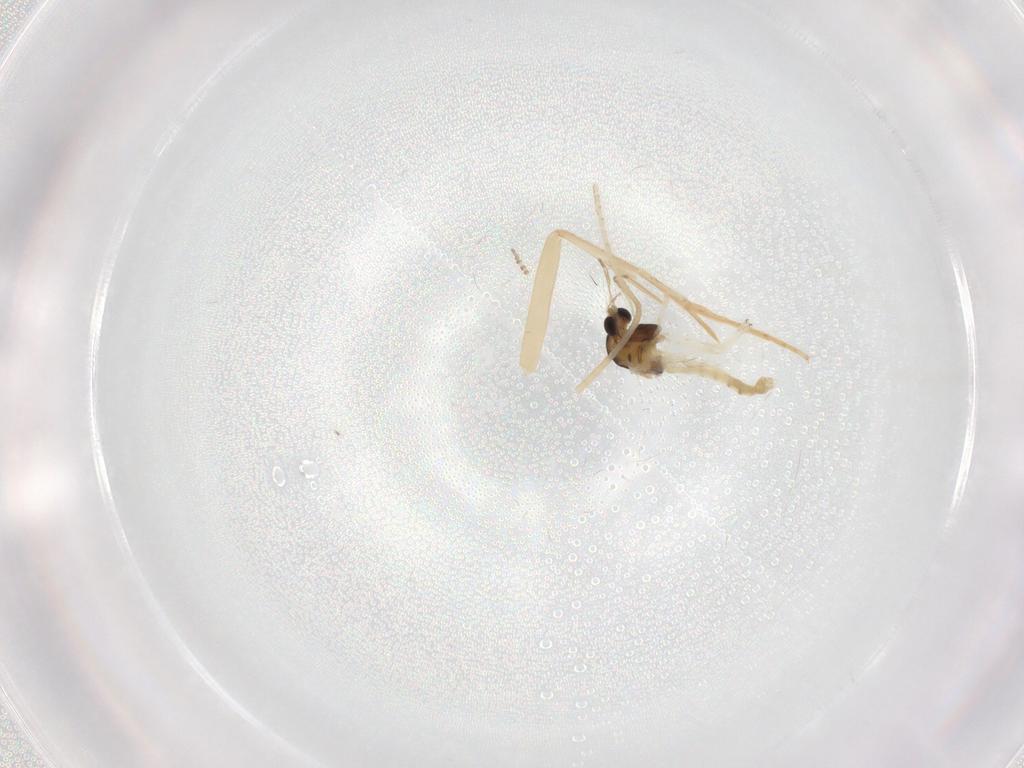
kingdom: Animalia
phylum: Arthropoda
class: Insecta
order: Diptera
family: Chironomidae
